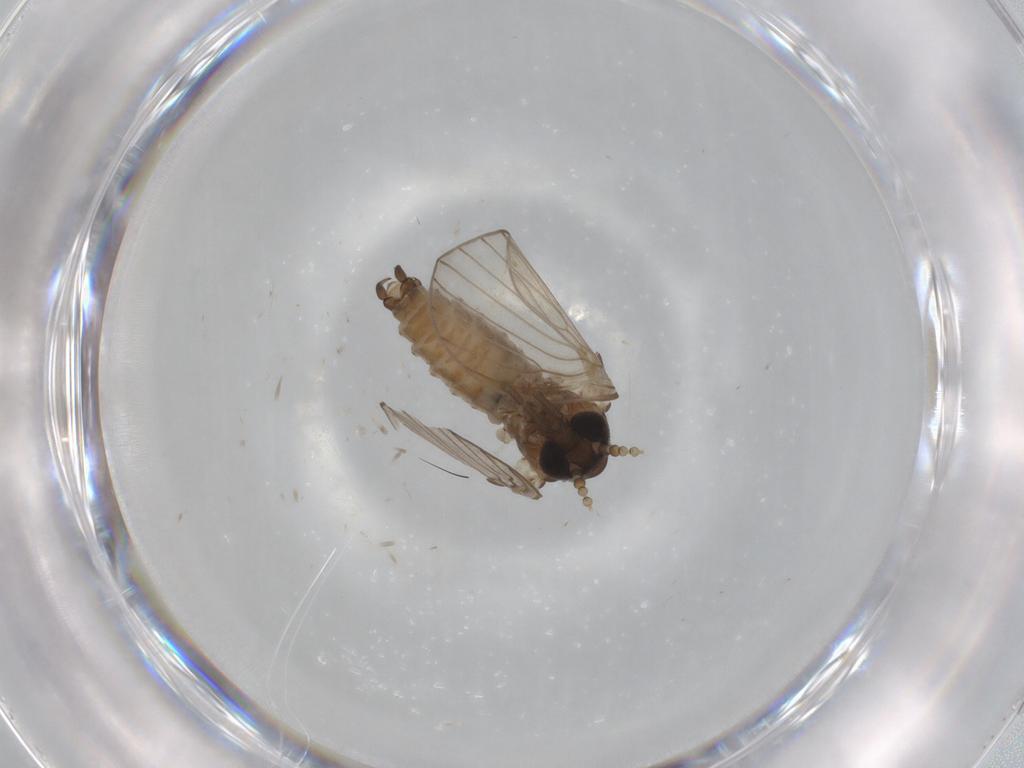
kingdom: Animalia
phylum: Arthropoda
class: Insecta
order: Diptera
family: Psychodidae
